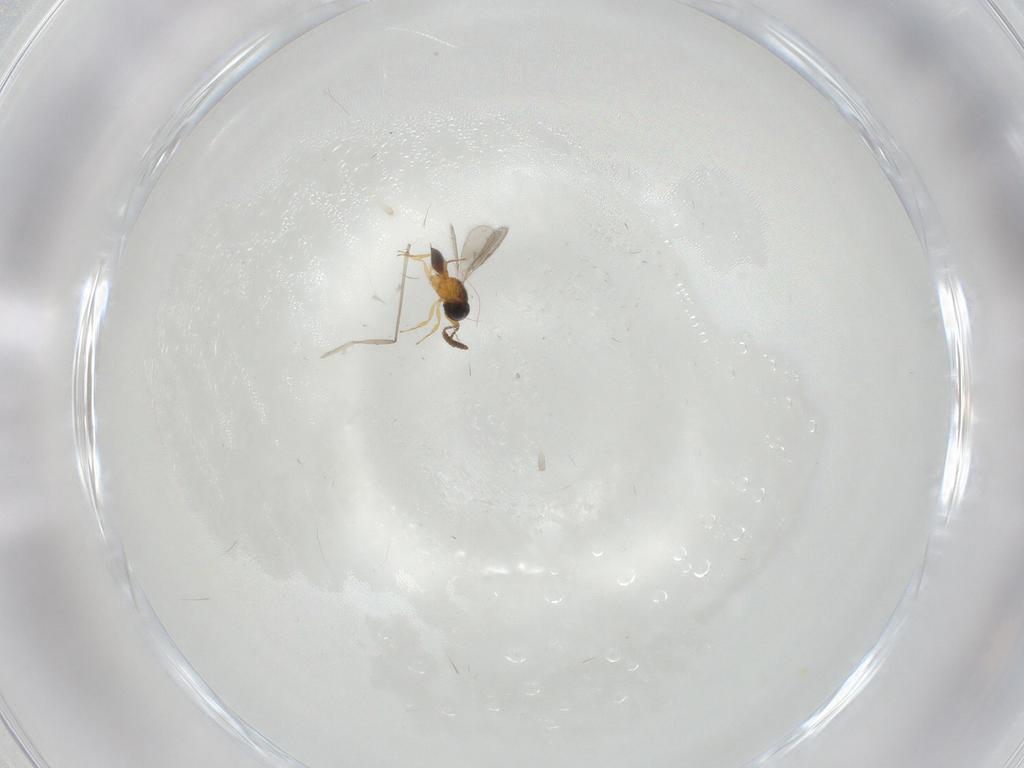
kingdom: Animalia
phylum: Arthropoda
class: Insecta
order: Hymenoptera
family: Scelionidae
